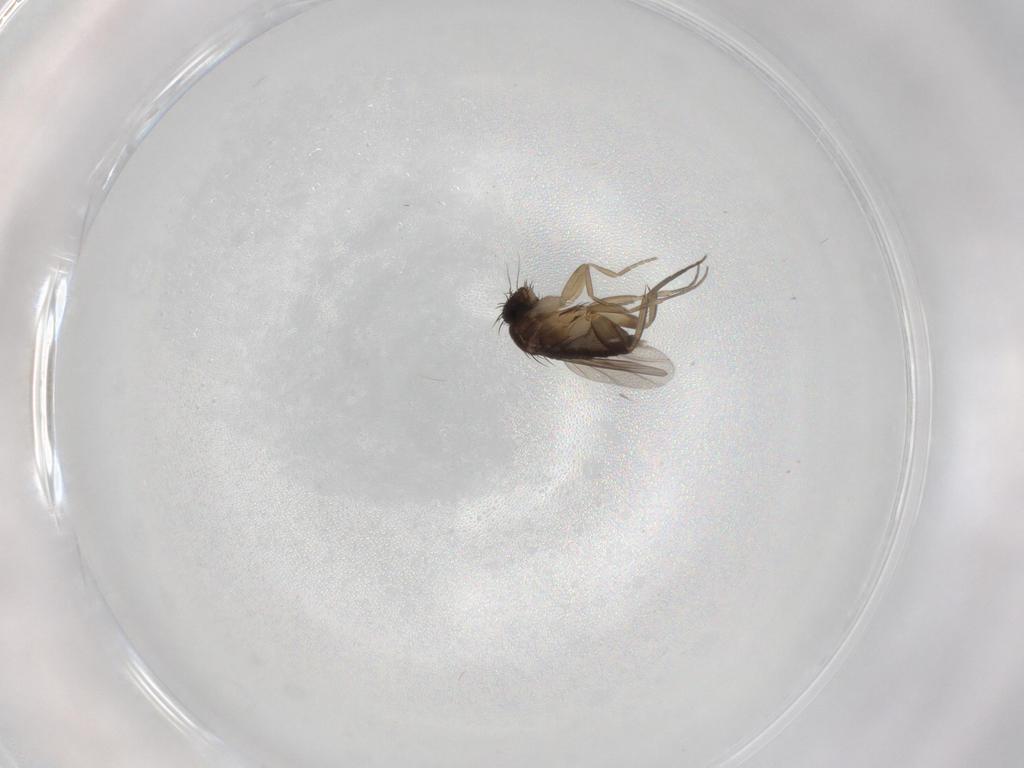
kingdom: Animalia
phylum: Arthropoda
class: Insecta
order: Diptera
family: Phoridae
